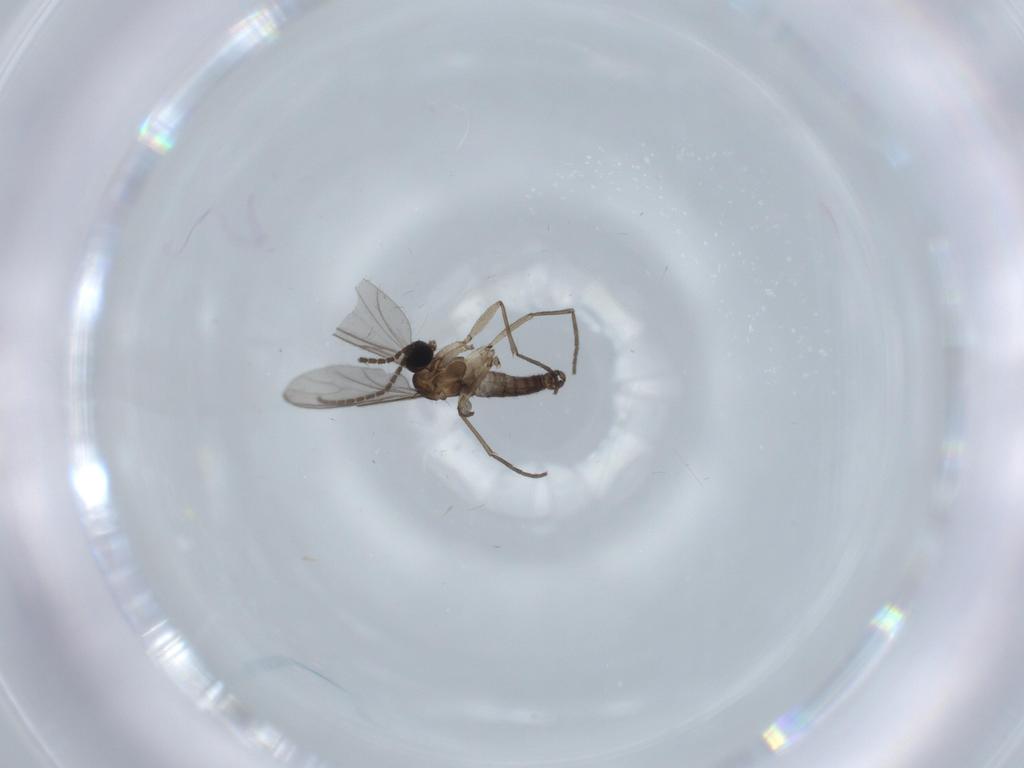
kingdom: Animalia
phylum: Arthropoda
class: Insecta
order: Diptera
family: Sciaridae
